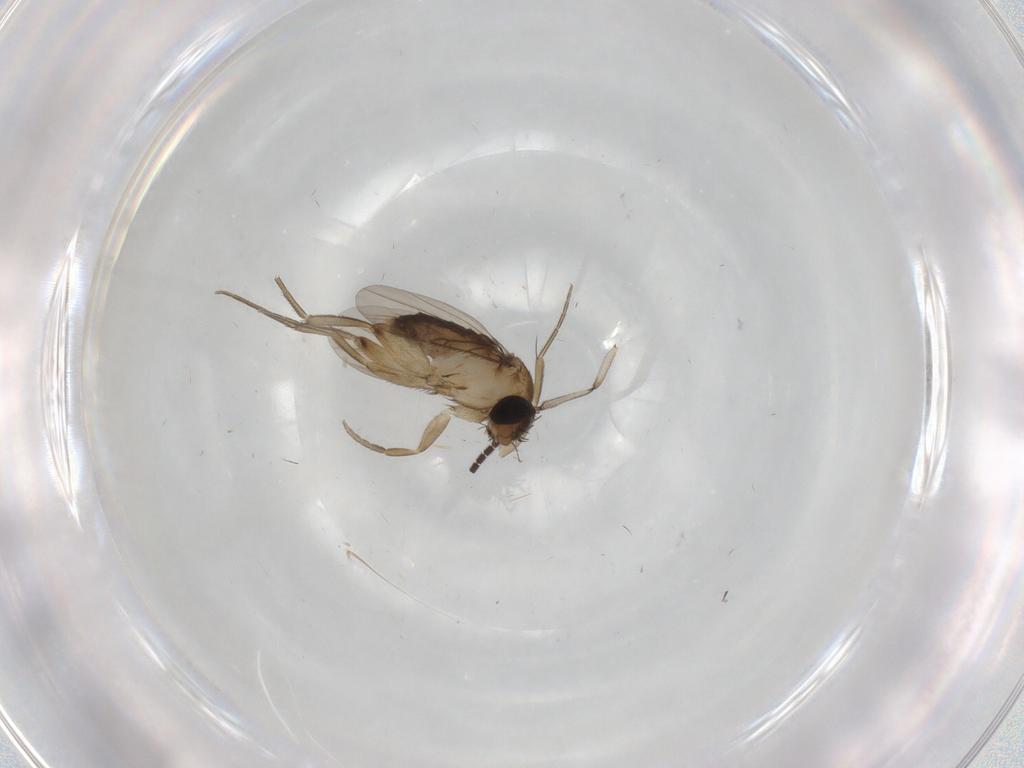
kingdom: Animalia
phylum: Arthropoda
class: Insecta
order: Diptera
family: Phoridae
